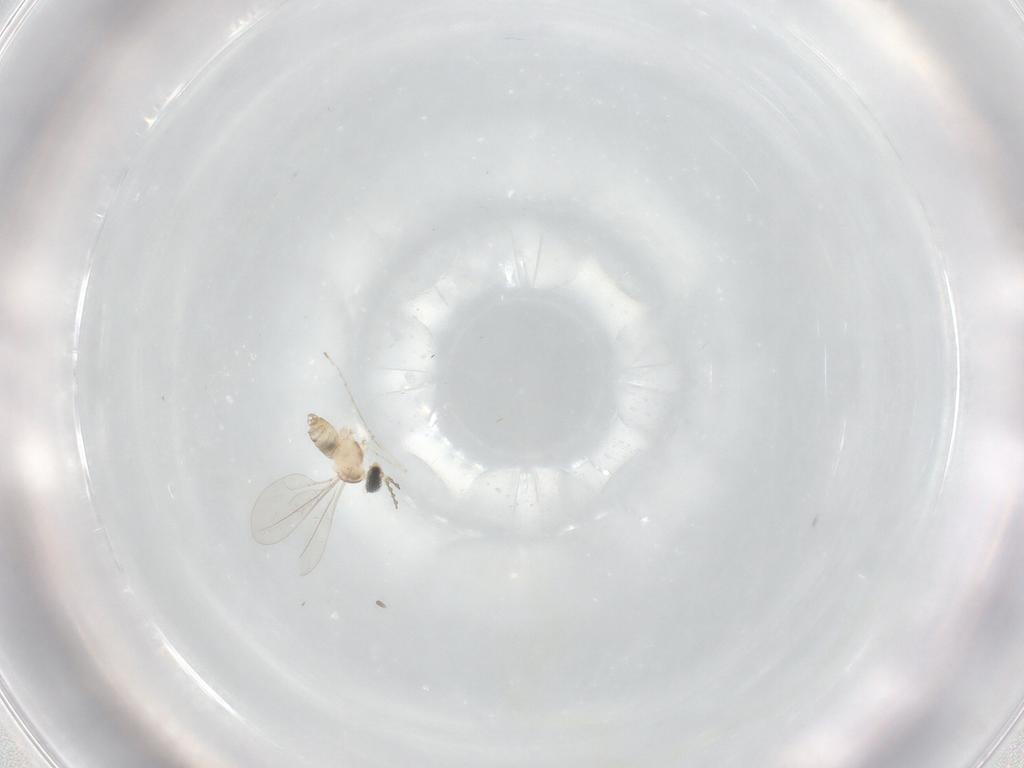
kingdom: Animalia
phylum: Arthropoda
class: Insecta
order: Diptera
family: Cecidomyiidae
